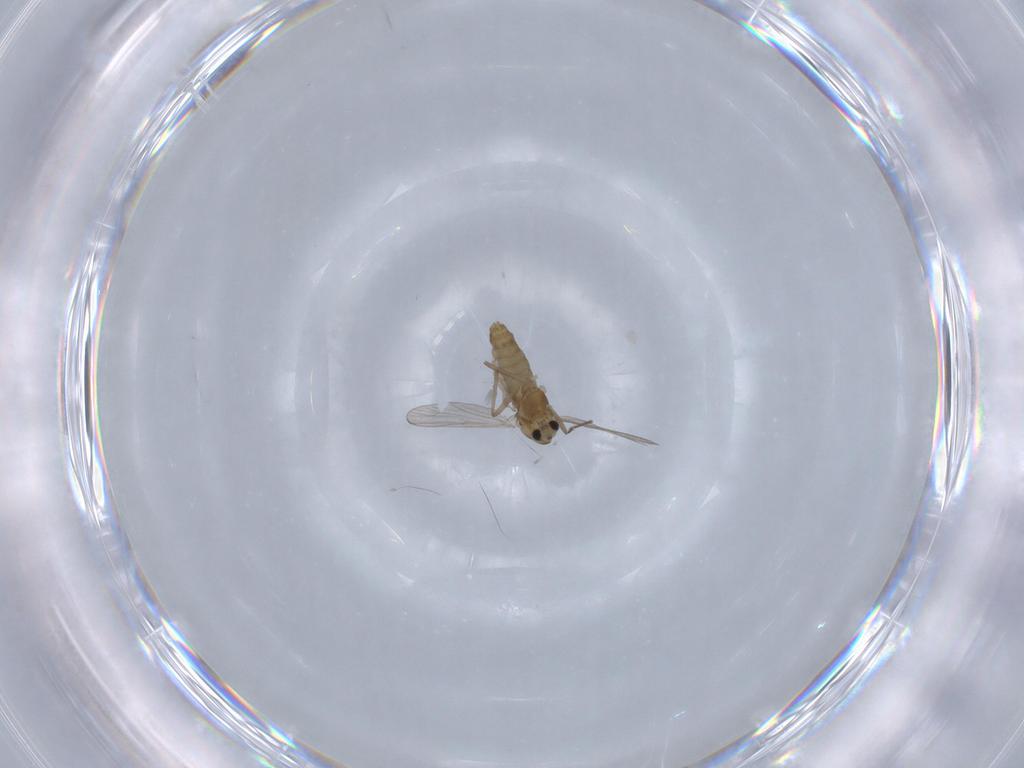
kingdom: Animalia
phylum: Arthropoda
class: Insecta
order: Diptera
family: Chironomidae
